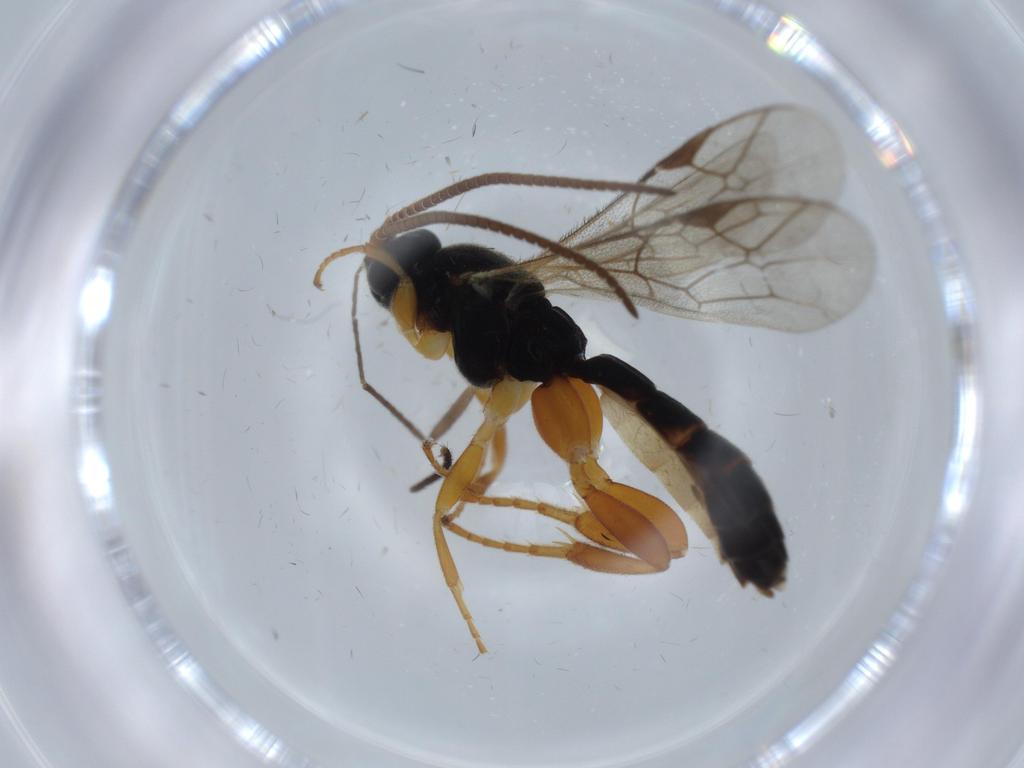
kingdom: Animalia
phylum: Arthropoda
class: Insecta
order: Hymenoptera
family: Ichneumonidae
